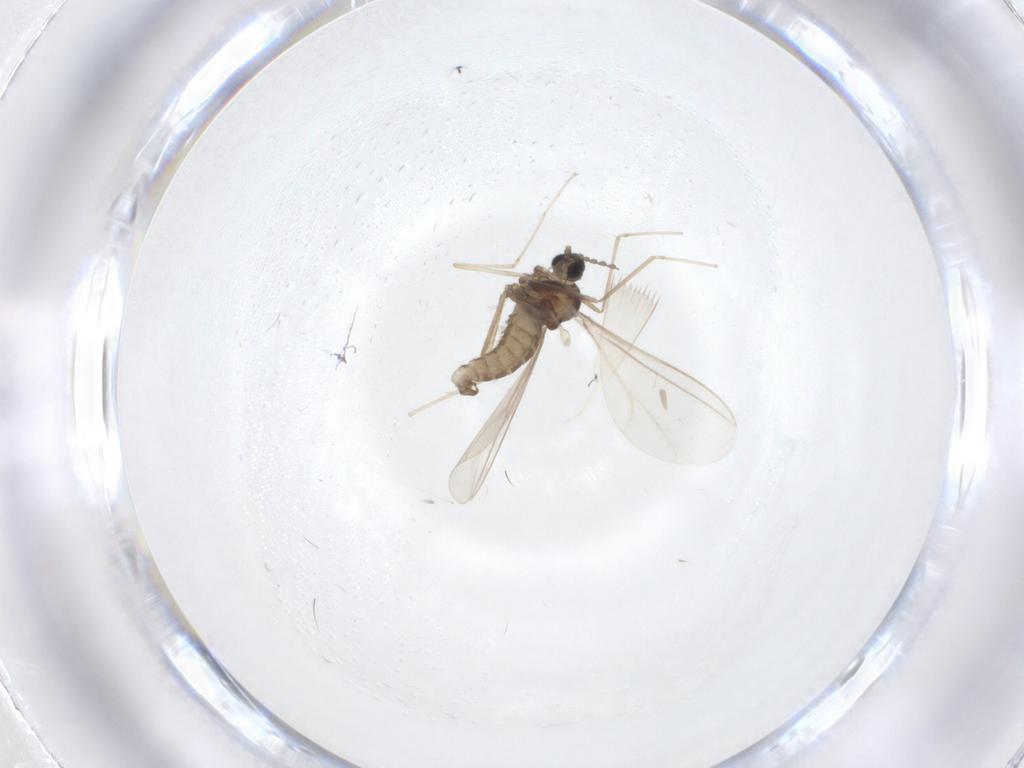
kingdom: Animalia
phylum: Arthropoda
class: Insecta
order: Diptera
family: Cecidomyiidae
